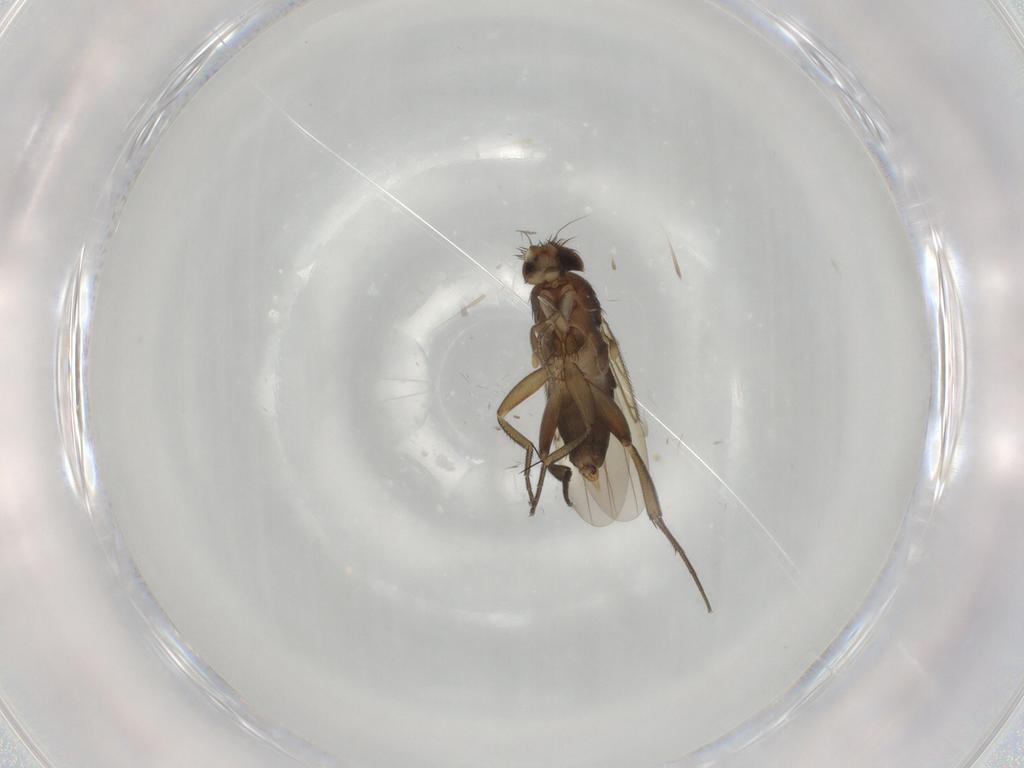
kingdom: Animalia
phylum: Arthropoda
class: Insecta
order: Diptera
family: Phoridae
